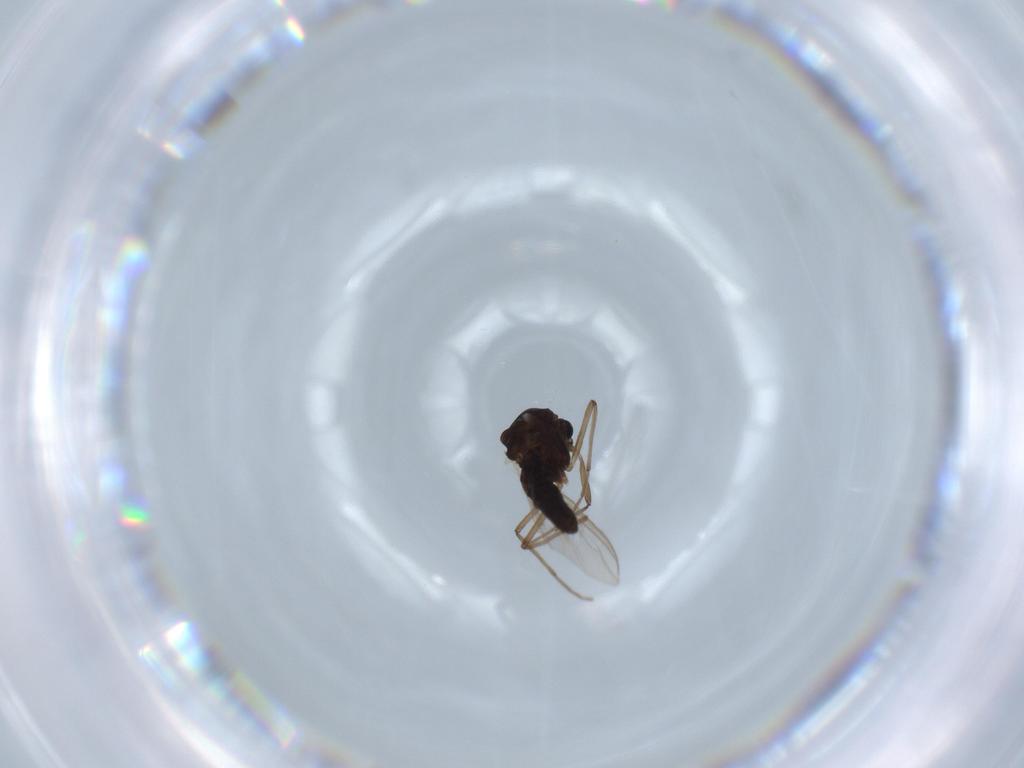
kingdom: Animalia
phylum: Arthropoda
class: Insecta
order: Diptera
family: Chironomidae
